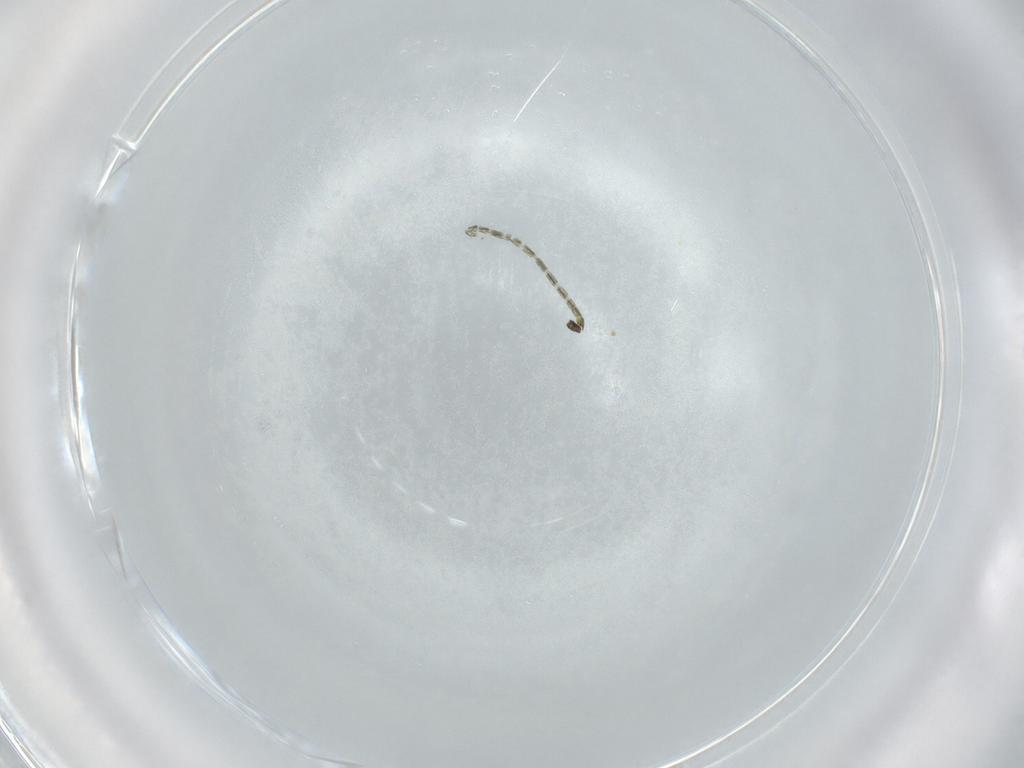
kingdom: Animalia
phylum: Arthropoda
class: Insecta
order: Diptera
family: Chironomidae
